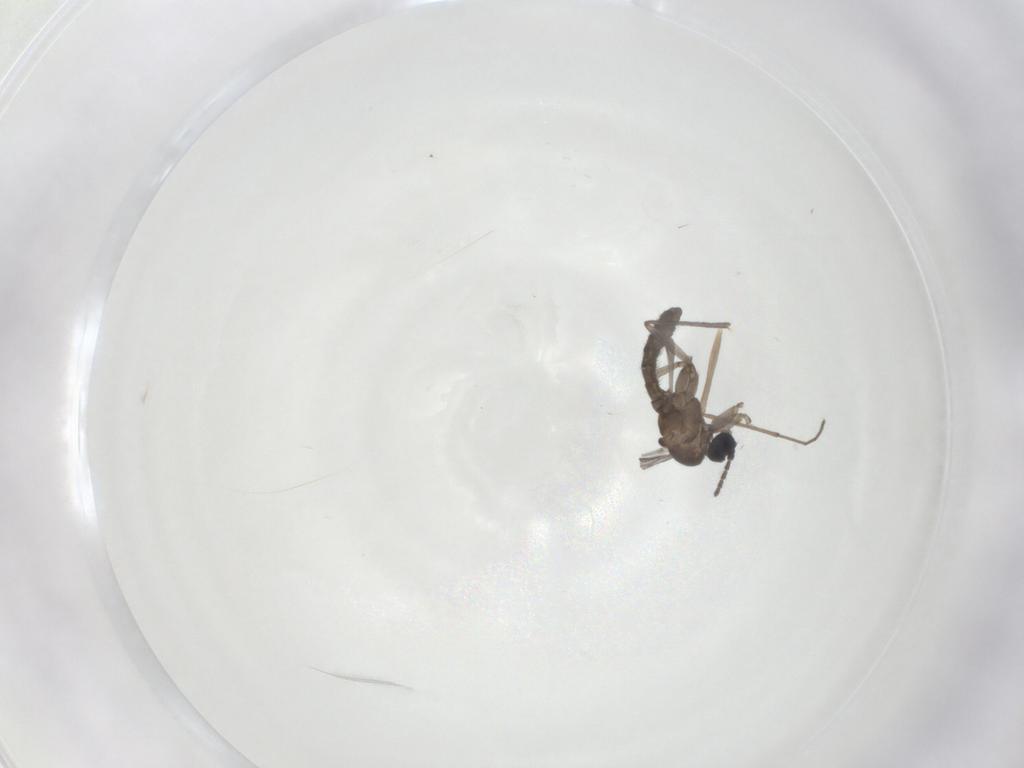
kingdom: Animalia
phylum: Arthropoda
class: Insecta
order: Diptera
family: Sciaridae
